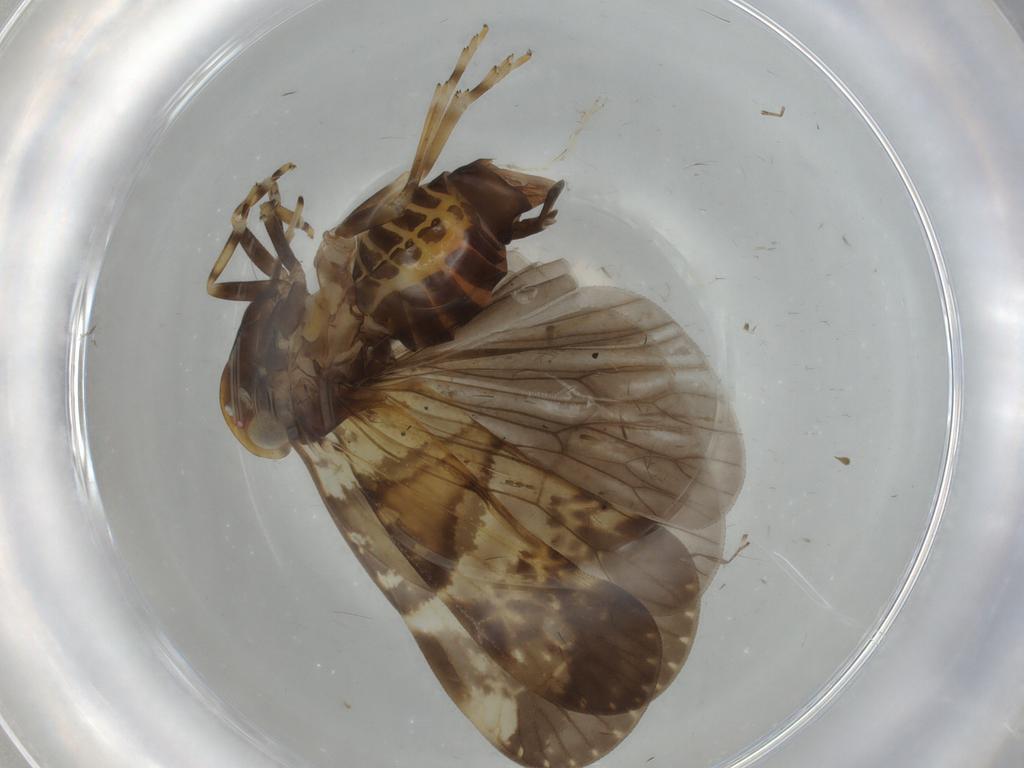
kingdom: Animalia
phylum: Arthropoda
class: Insecta
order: Hemiptera
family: Cixiidae
